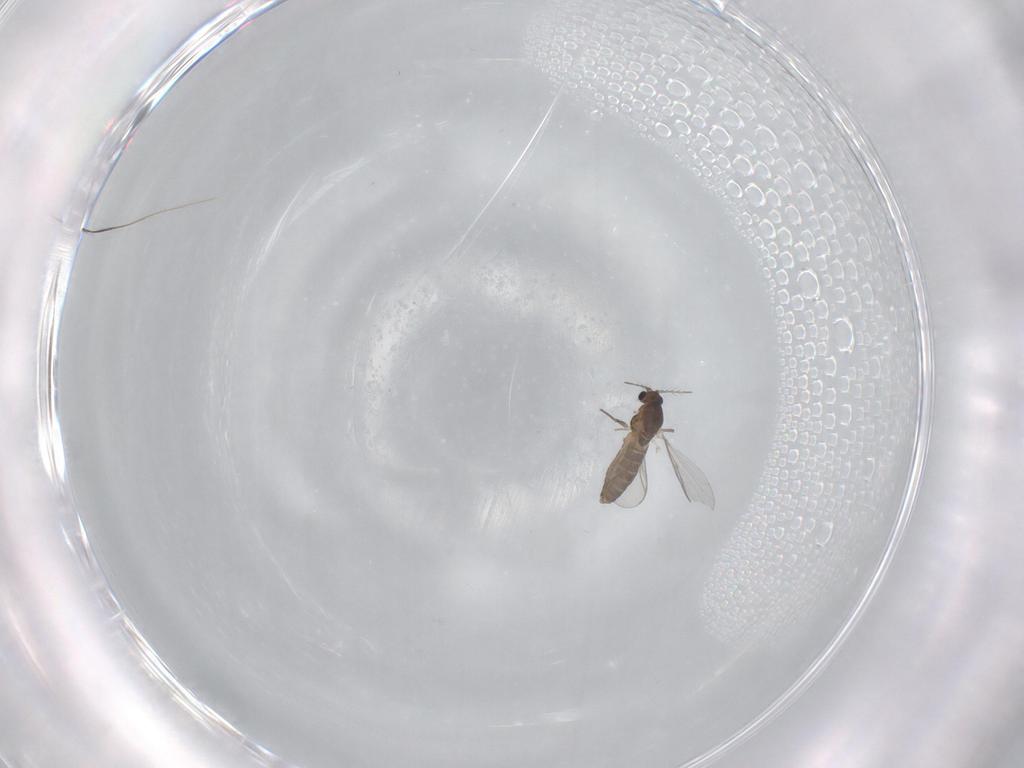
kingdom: Animalia
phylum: Arthropoda
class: Insecta
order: Diptera
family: Chironomidae
